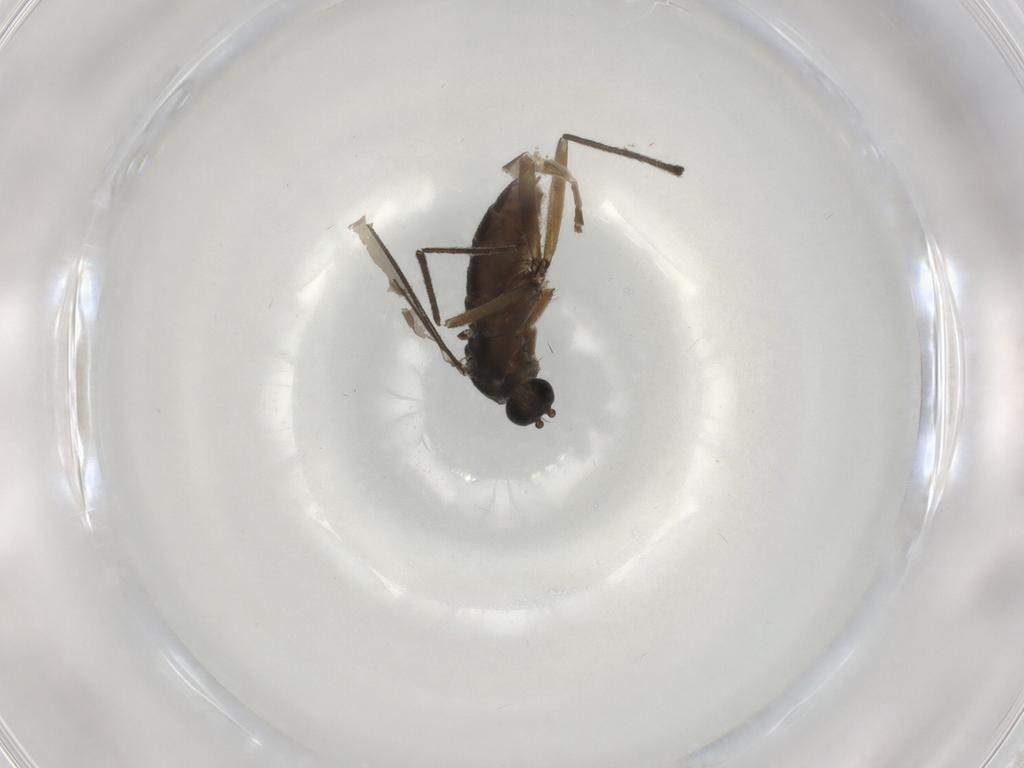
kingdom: Animalia
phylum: Arthropoda
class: Insecta
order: Diptera
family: Cecidomyiidae
